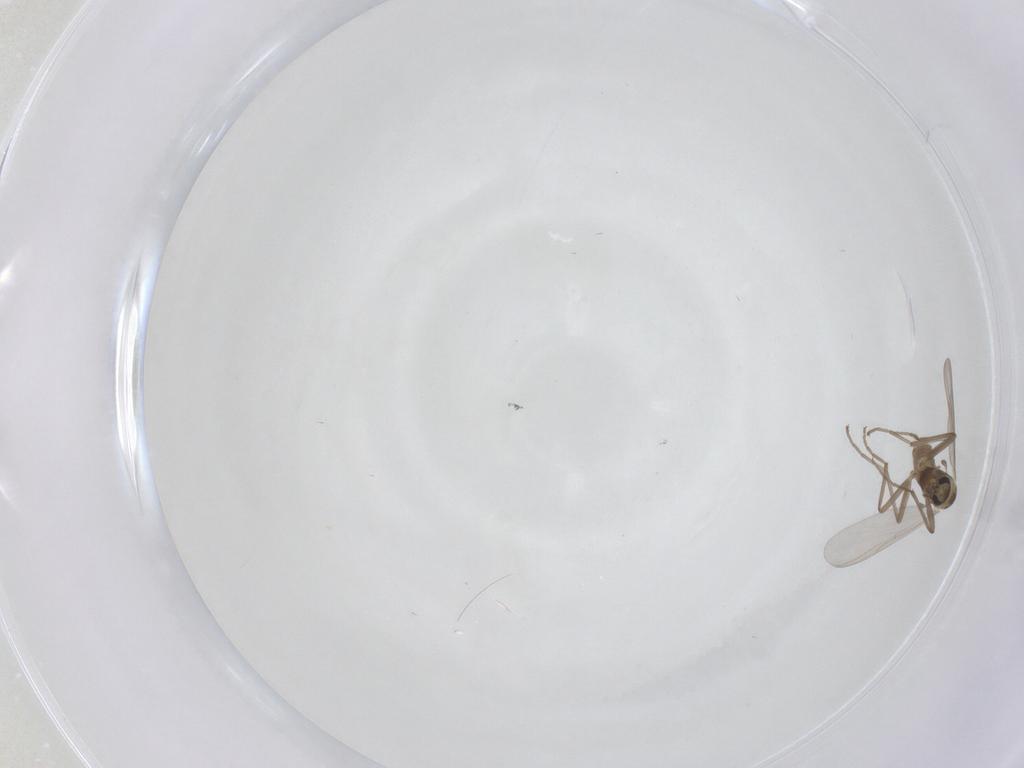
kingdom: Animalia
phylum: Arthropoda
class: Insecta
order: Diptera
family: Chironomidae
